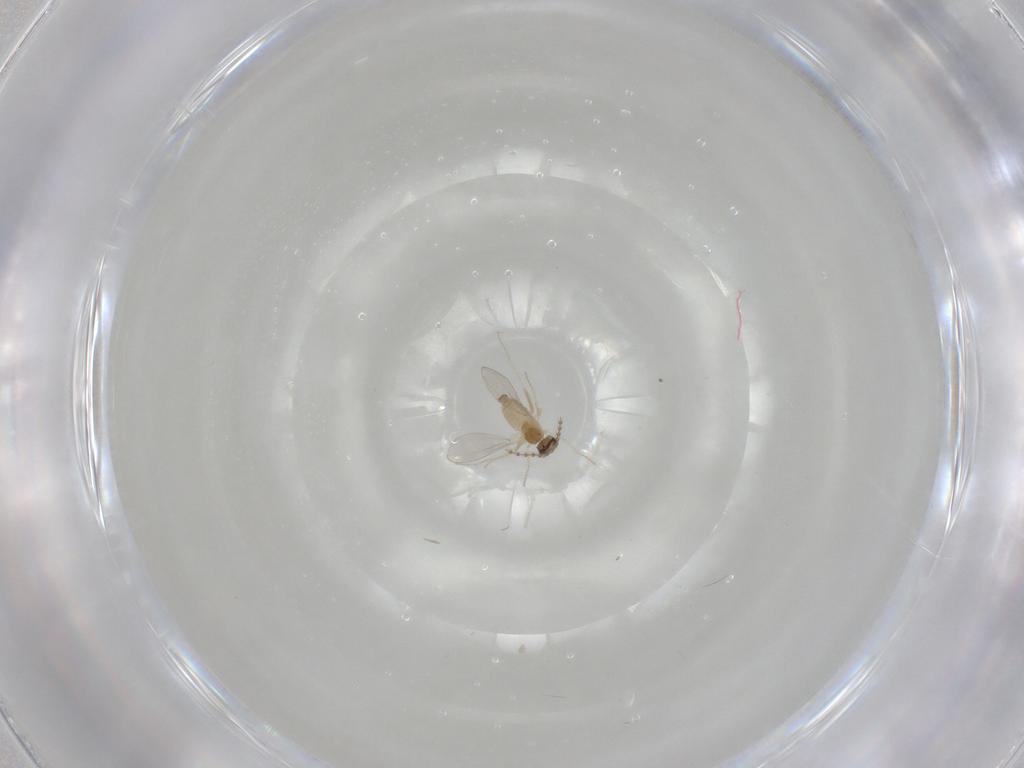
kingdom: Animalia
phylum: Arthropoda
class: Insecta
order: Diptera
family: Cecidomyiidae
